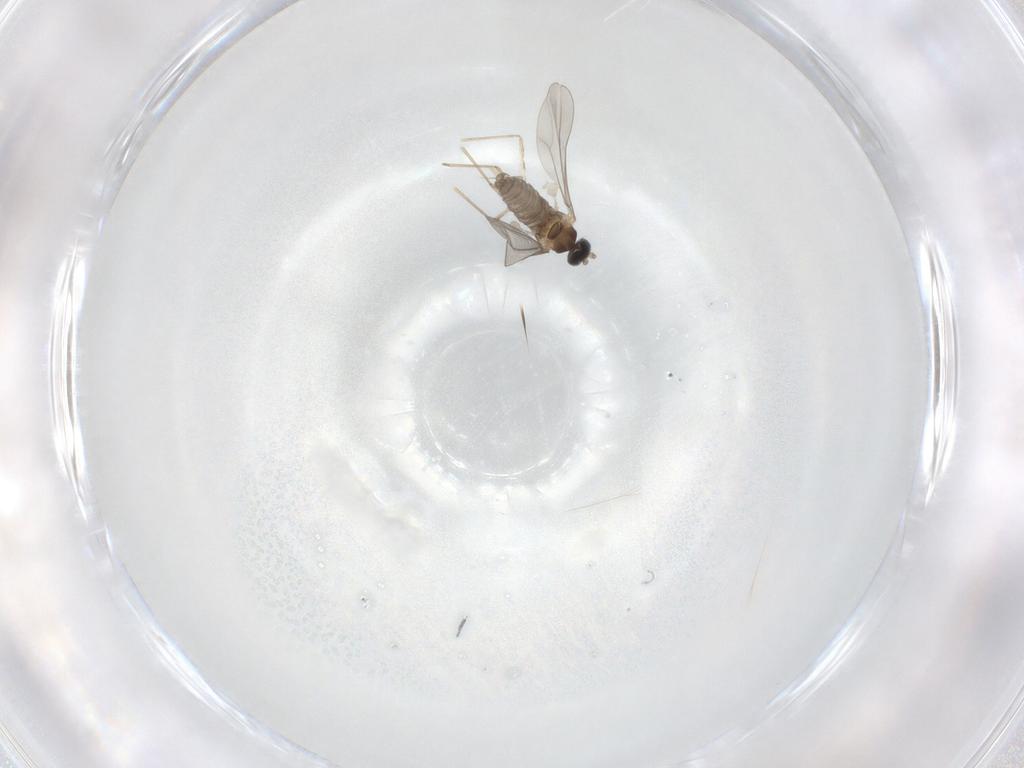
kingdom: Animalia
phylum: Arthropoda
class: Insecta
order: Diptera
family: Cecidomyiidae
